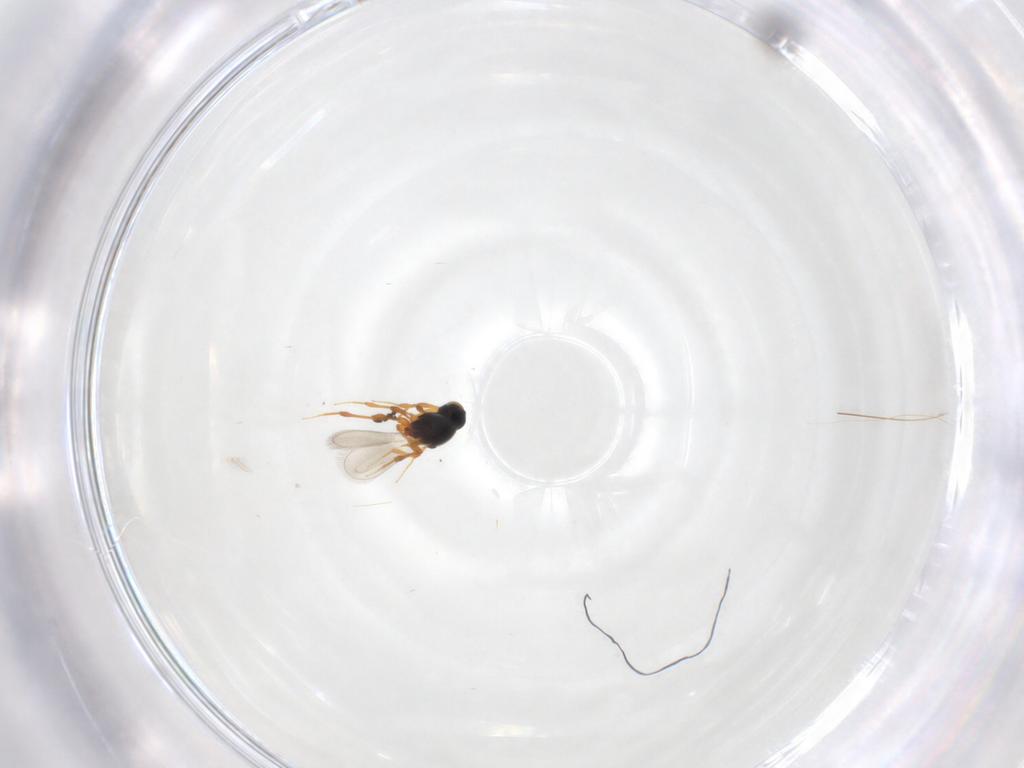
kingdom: Animalia
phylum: Arthropoda
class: Insecta
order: Hymenoptera
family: Platygastridae
